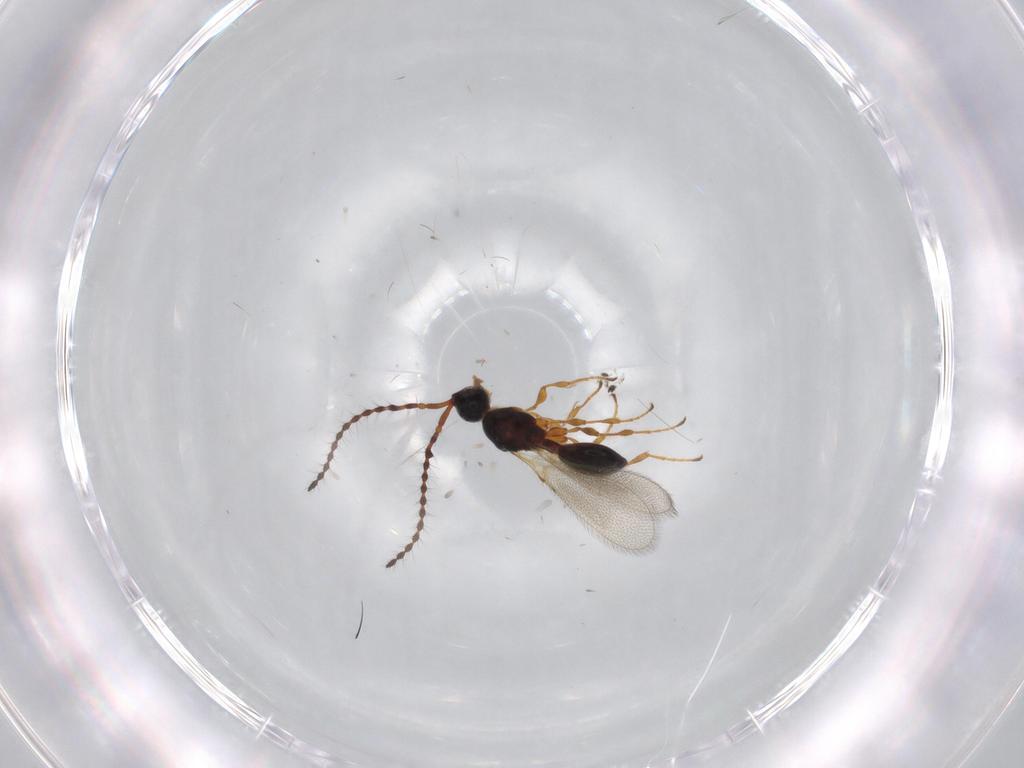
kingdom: Animalia
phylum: Arthropoda
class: Insecta
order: Hymenoptera
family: Diapriidae
